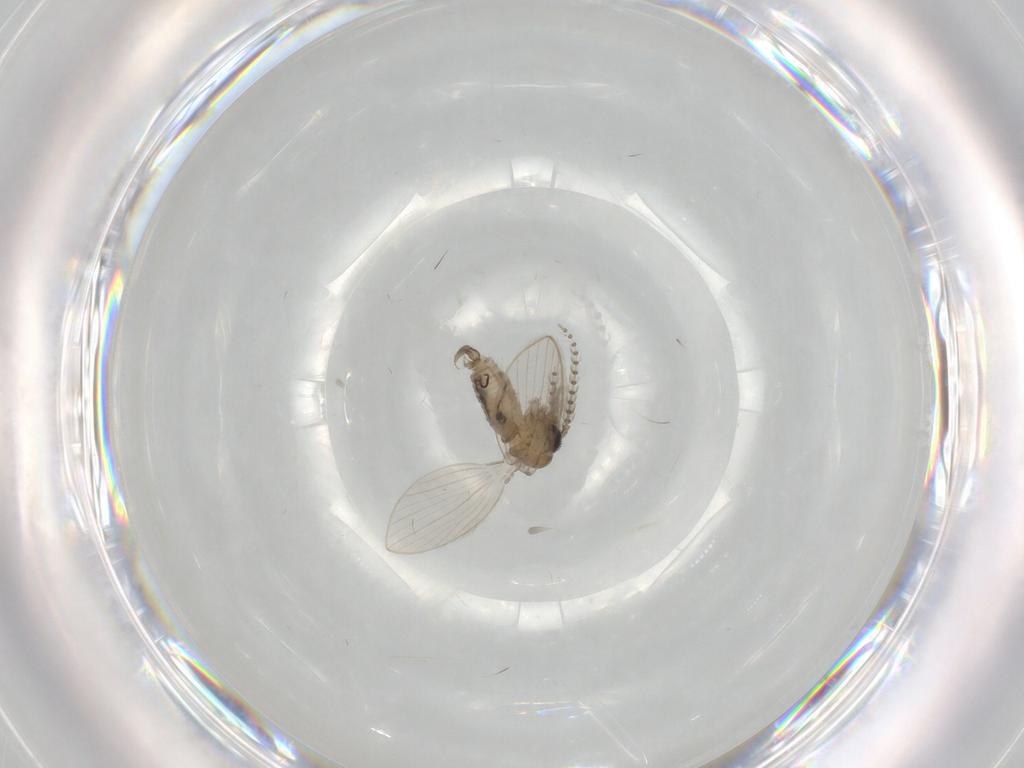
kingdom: Animalia
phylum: Arthropoda
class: Insecta
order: Diptera
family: Psychodidae
